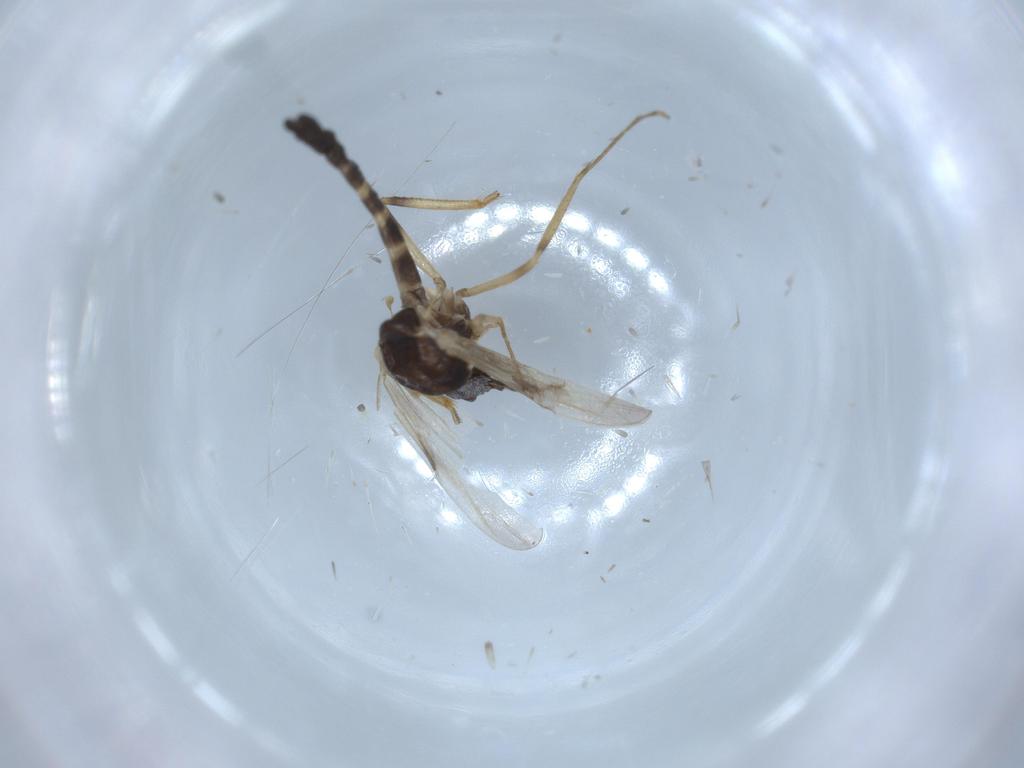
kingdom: Animalia
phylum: Arthropoda
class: Insecta
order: Diptera
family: Ceratopogonidae
